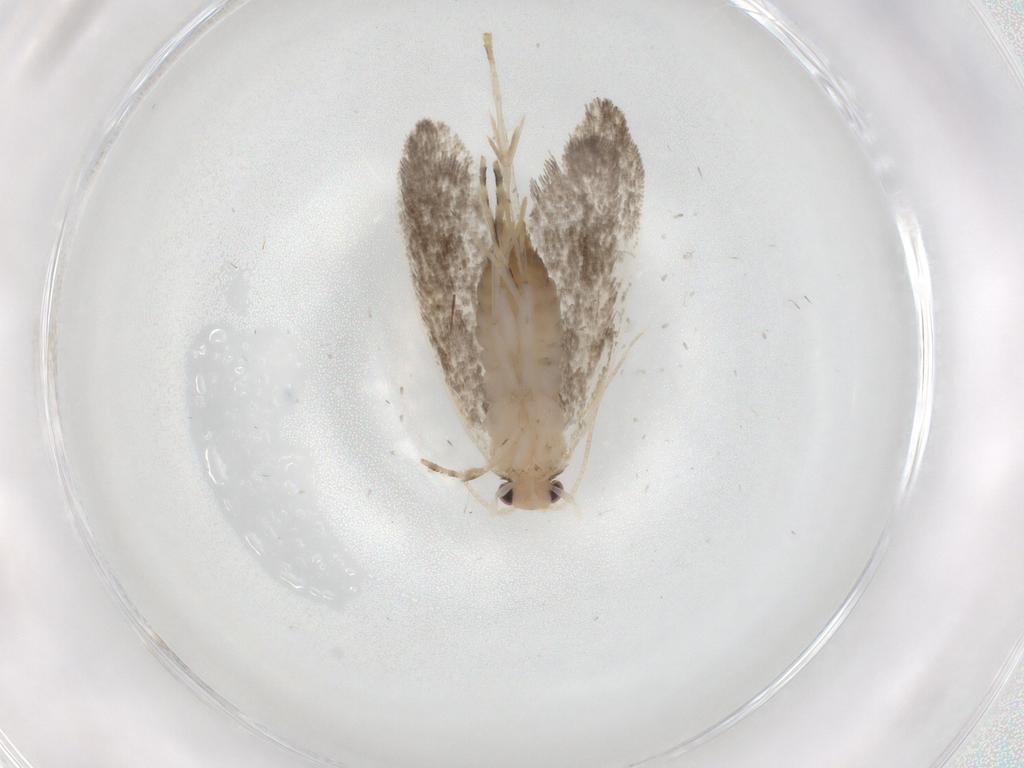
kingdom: Animalia
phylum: Arthropoda
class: Insecta
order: Lepidoptera
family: Tineidae
